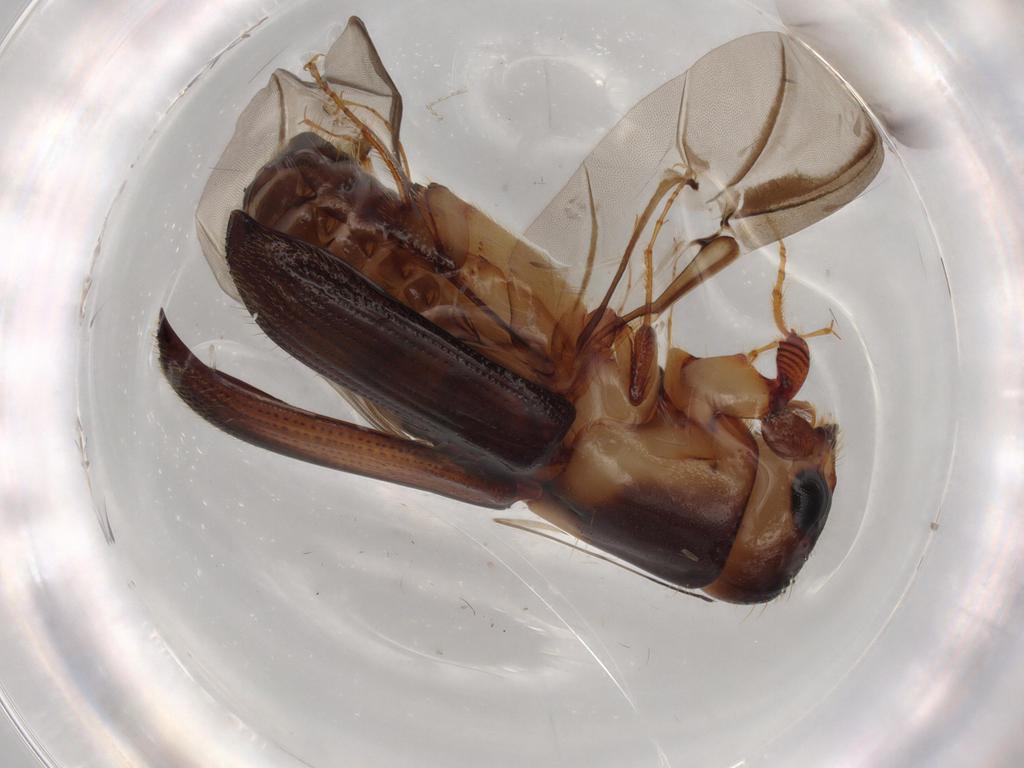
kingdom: Animalia
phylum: Arthropoda
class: Insecta
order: Coleoptera
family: Curculionidae
